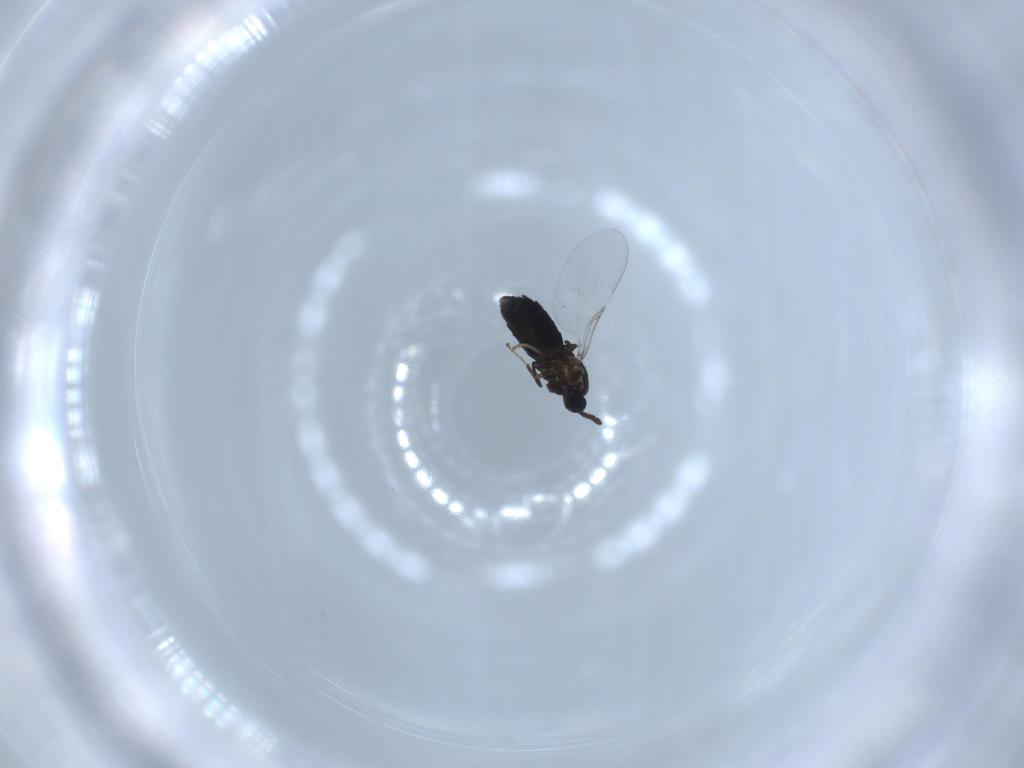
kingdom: Animalia
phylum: Arthropoda
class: Insecta
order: Diptera
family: Scatopsidae
